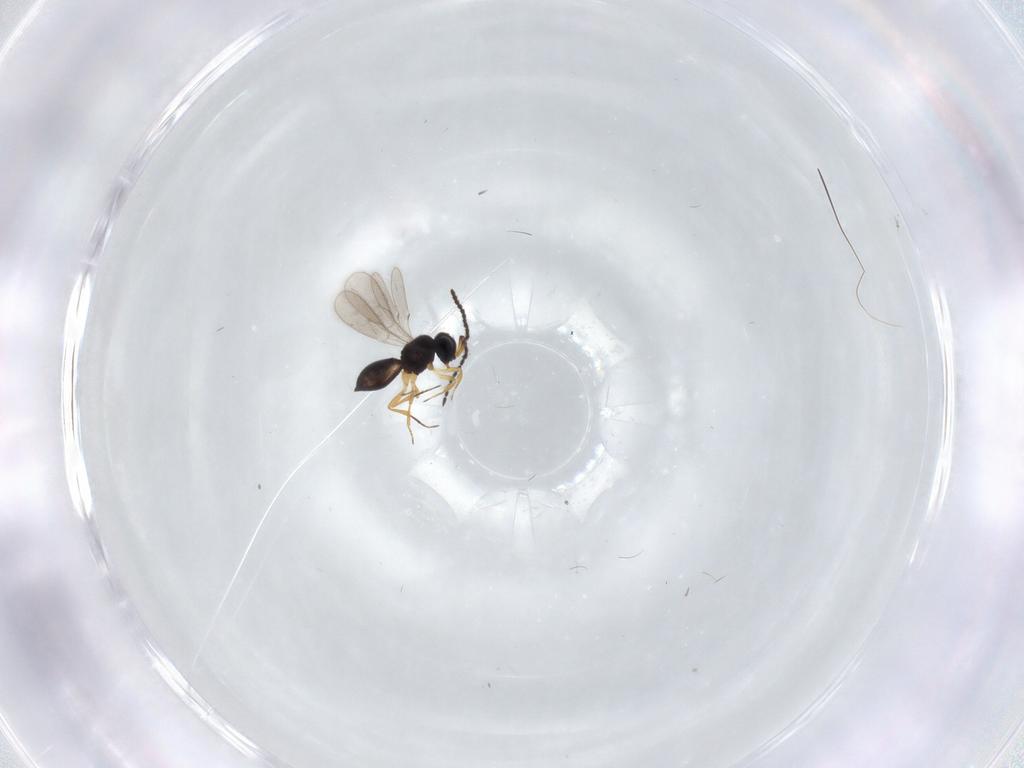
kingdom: Animalia
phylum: Arthropoda
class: Insecta
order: Hymenoptera
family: Scelionidae
